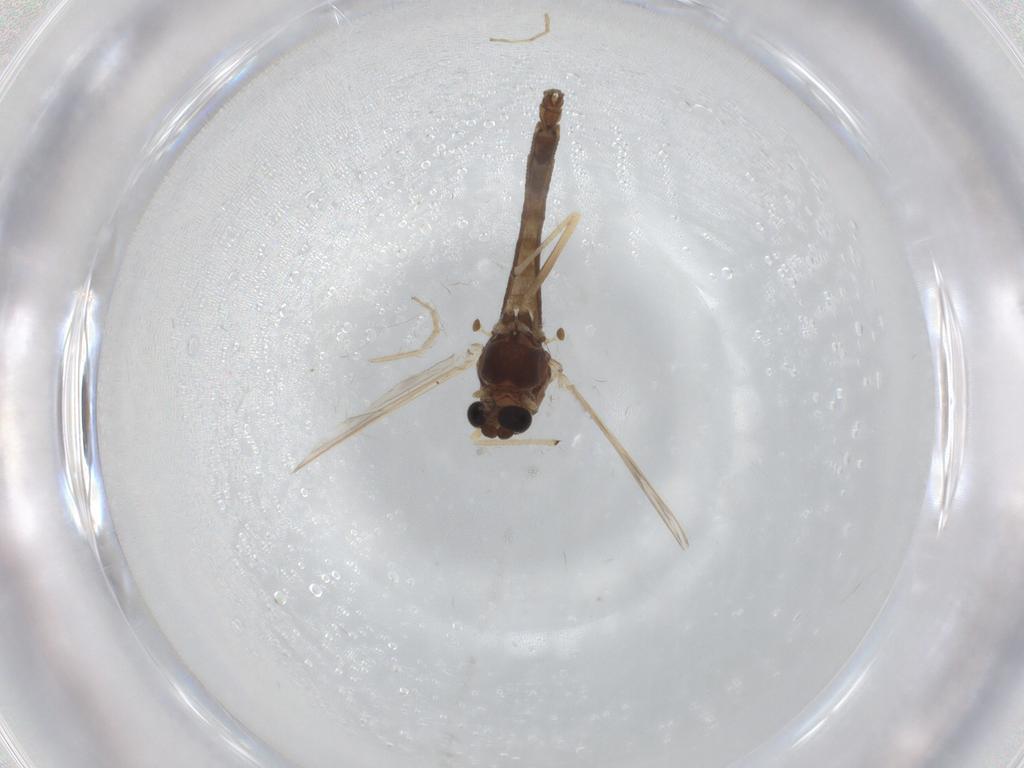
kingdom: Animalia
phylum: Arthropoda
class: Insecta
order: Diptera
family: Chironomidae
